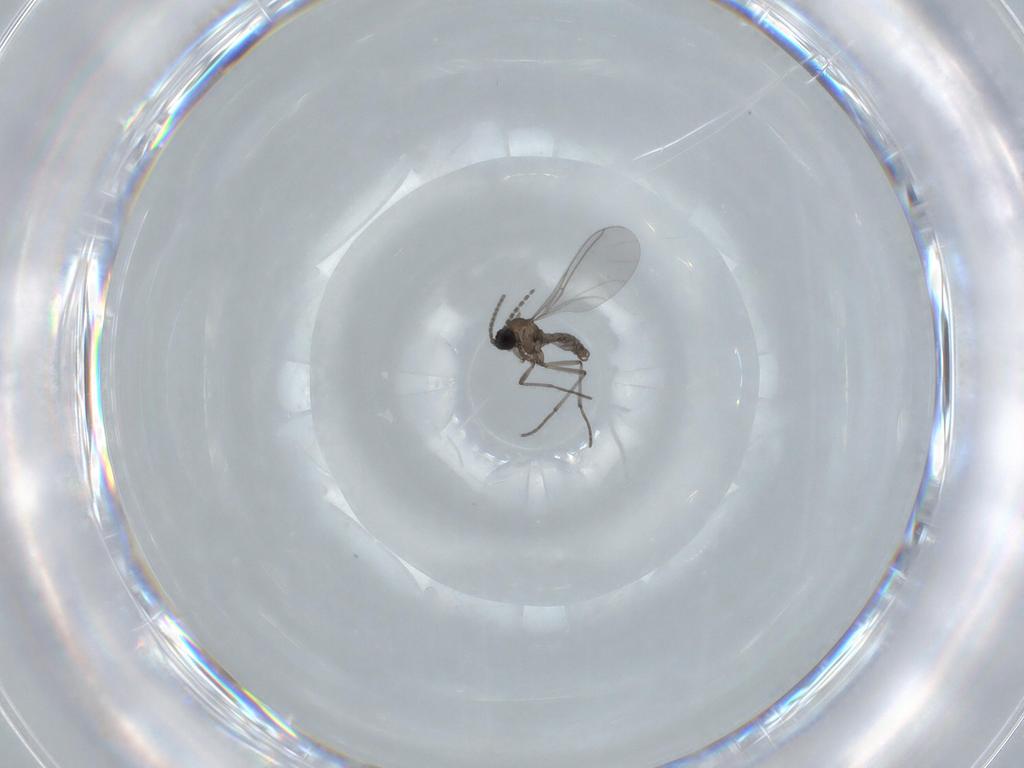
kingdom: Animalia
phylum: Arthropoda
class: Insecta
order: Diptera
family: Sciaridae
